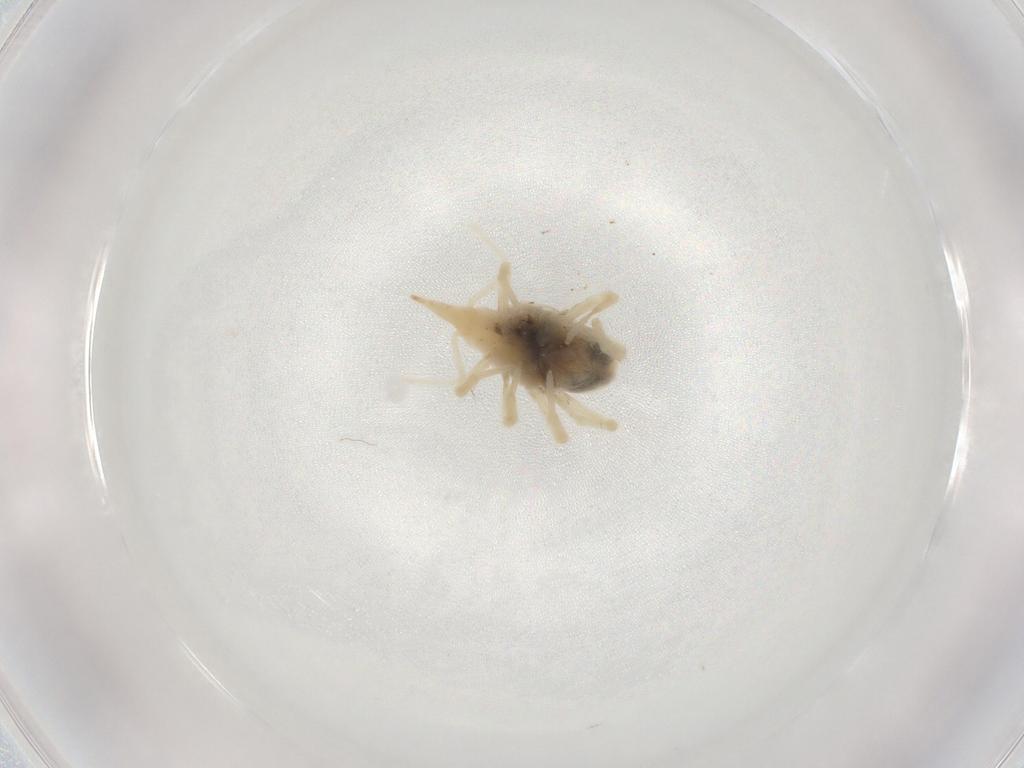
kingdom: Animalia
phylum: Arthropoda
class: Arachnida
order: Trombidiformes
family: Bdellidae
